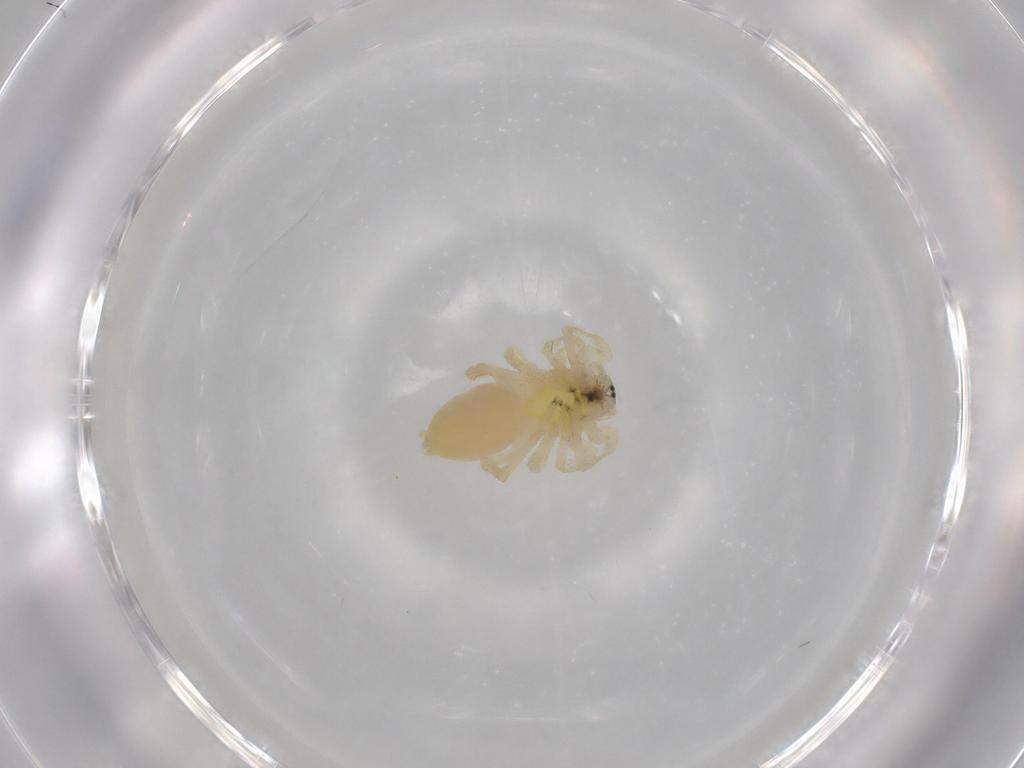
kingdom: Animalia
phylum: Arthropoda
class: Arachnida
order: Araneae
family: Anyphaenidae
